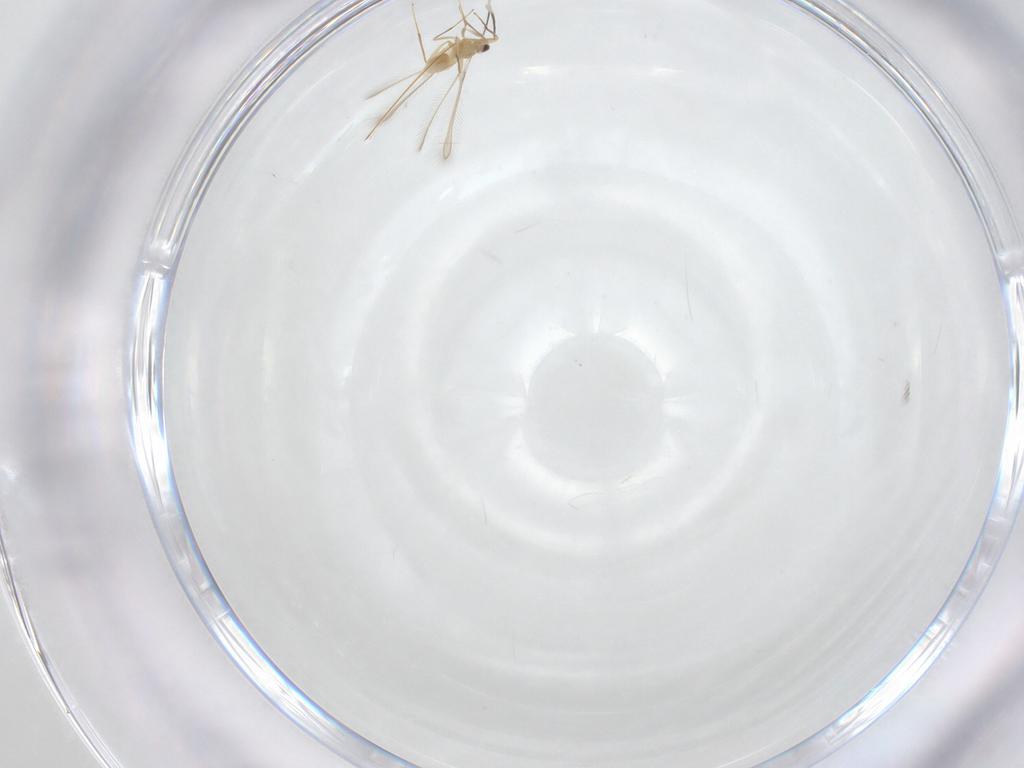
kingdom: Animalia
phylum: Arthropoda
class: Insecta
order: Hymenoptera
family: Mymaridae
